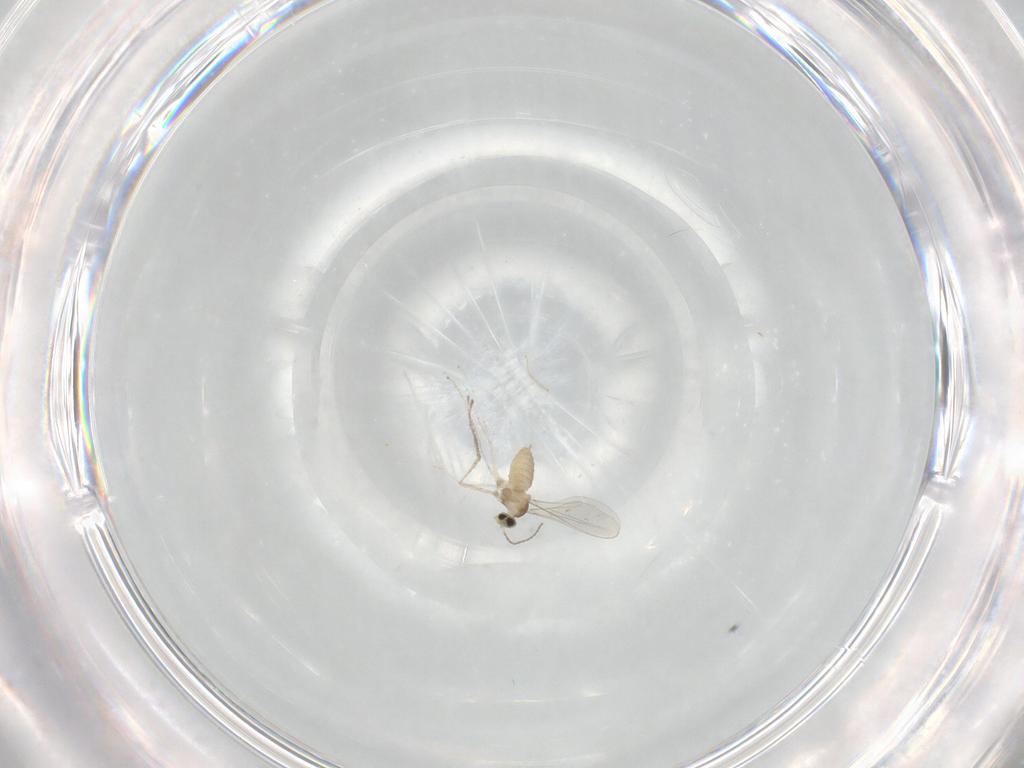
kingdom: Animalia
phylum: Arthropoda
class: Insecta
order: Diptera
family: Cecidomyiidae
